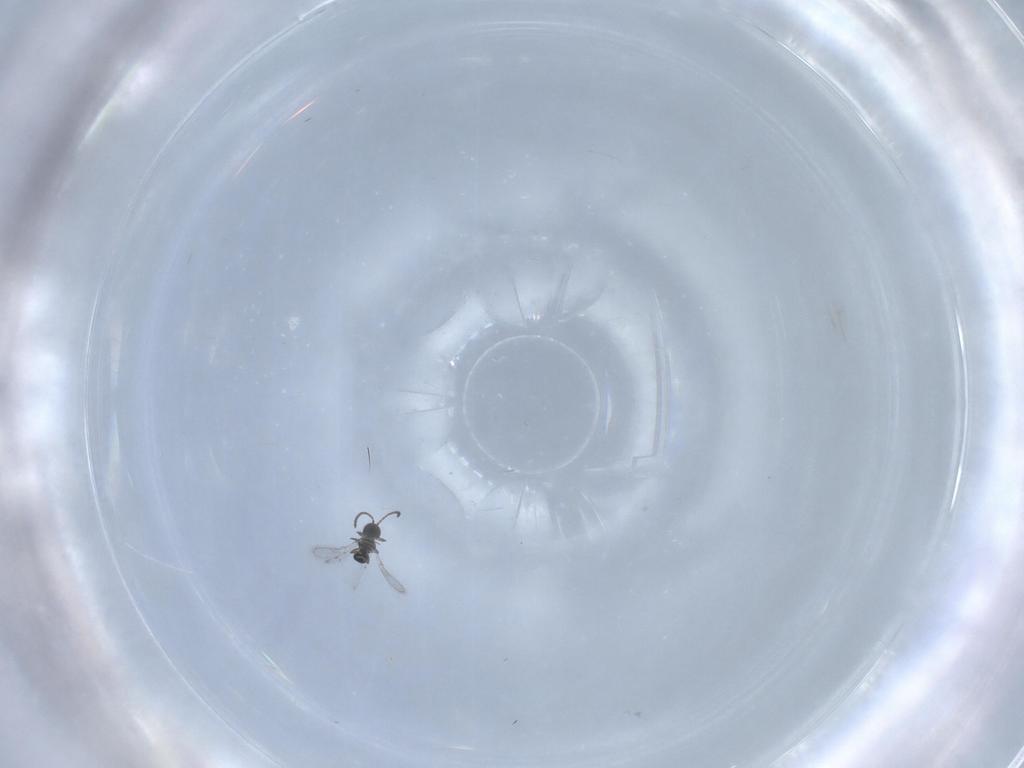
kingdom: Animalia
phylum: Arthropoda
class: Insecta
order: Hymenoptera
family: Scelionidae
